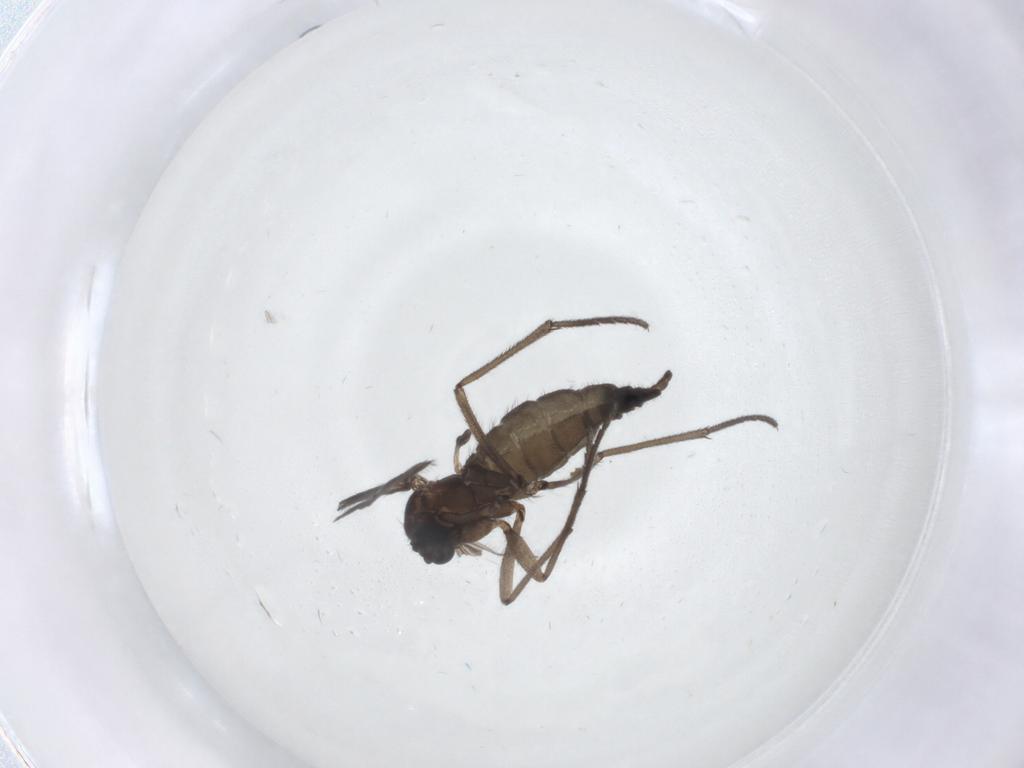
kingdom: Animalia
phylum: Arthropoda
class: Insecta
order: Diptera
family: Sciaridae
